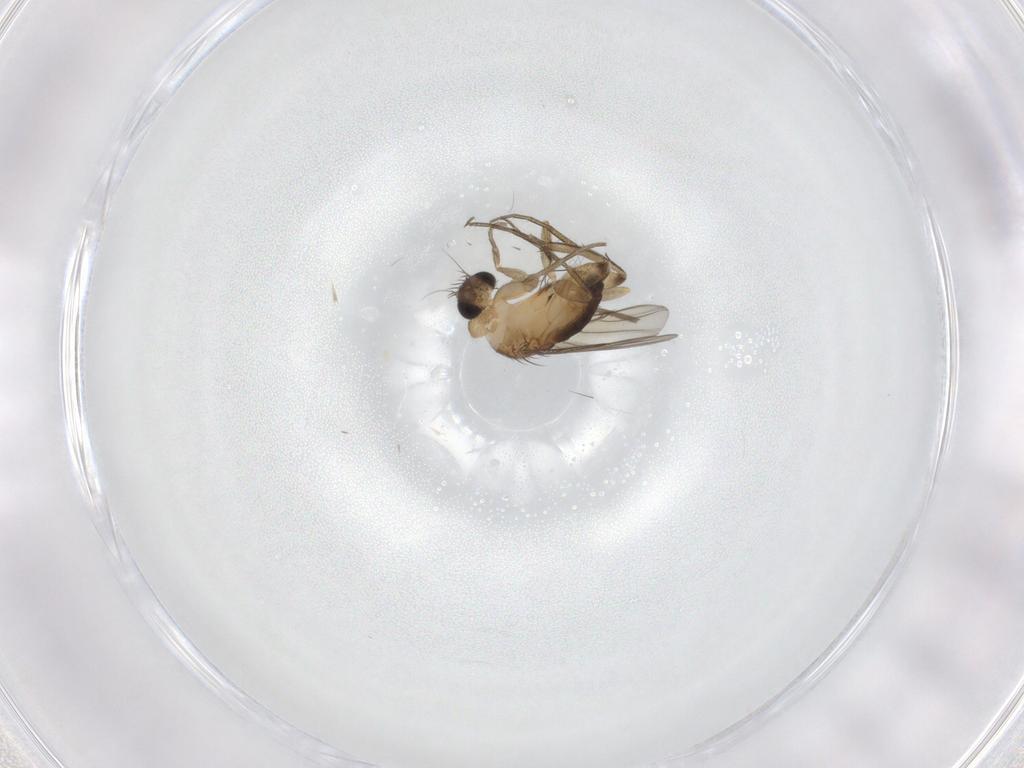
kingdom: Animalia
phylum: Arthropoda
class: Insecta
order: Diptera
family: Phoridae
